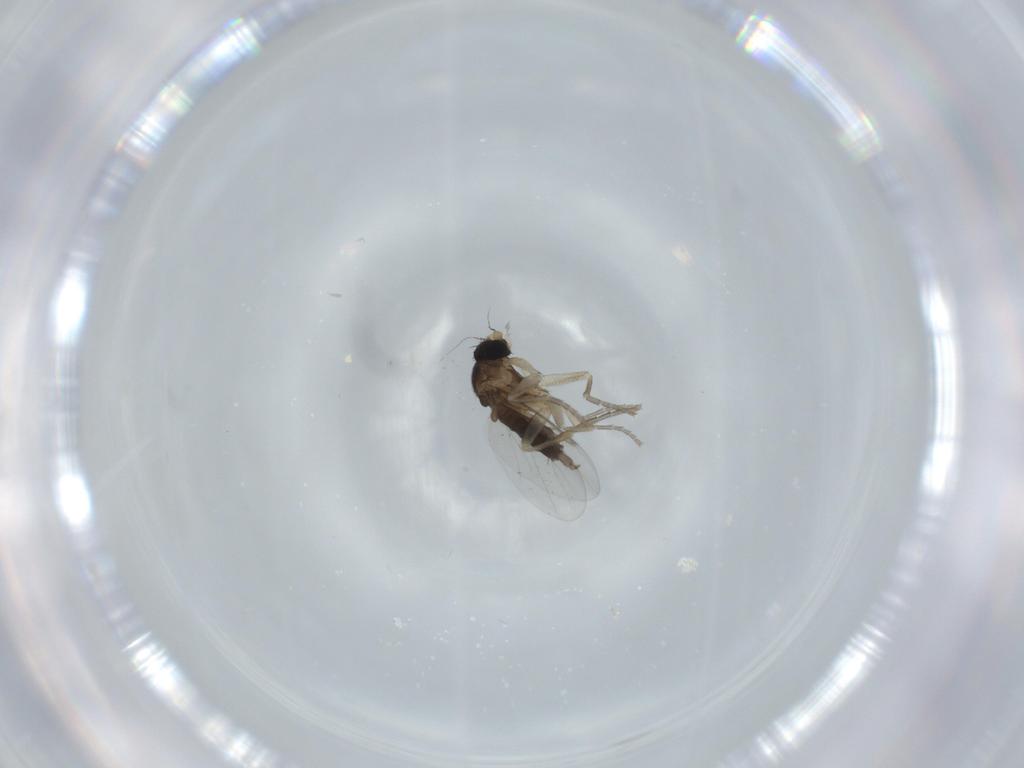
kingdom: Animalia
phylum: Arthropoda
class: Insecta
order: Diptera
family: Phoridae
